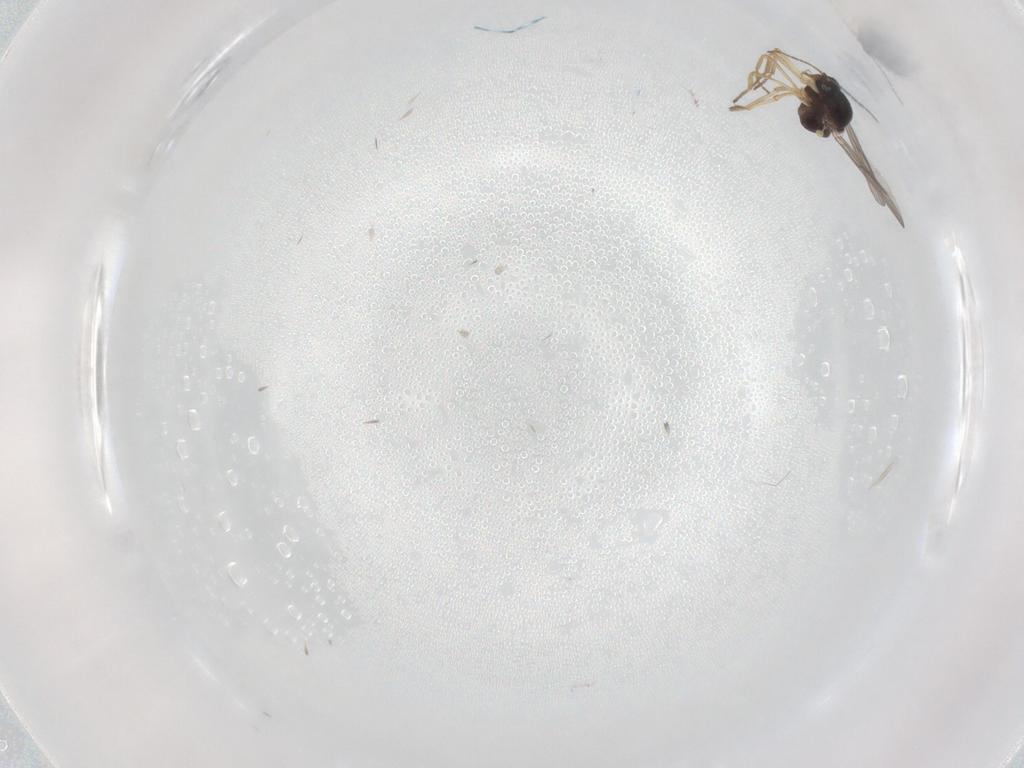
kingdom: Animalia
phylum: Arthropoda
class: Insecta
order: Diptera
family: Ceratopogonidae
